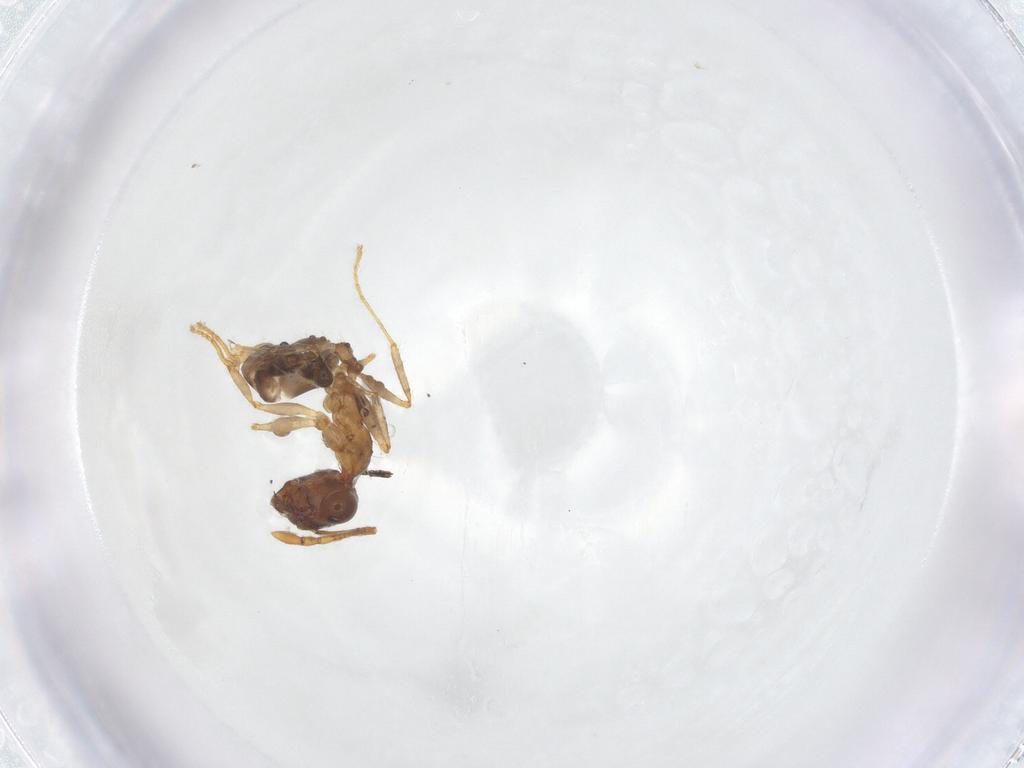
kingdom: Animalia
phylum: Arthropoda
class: Insecta
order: Hymenoptera
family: Formicidae
